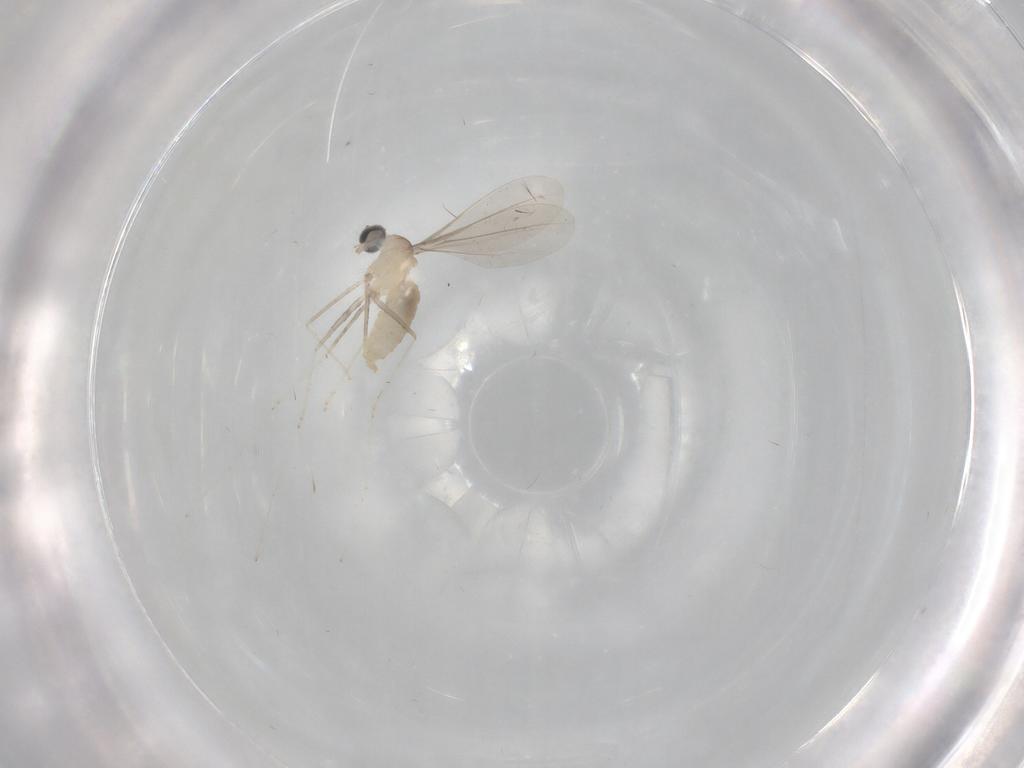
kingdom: Animalia
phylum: Arthropoda
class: Insecta
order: Diptera
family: Cecidomyiidae
